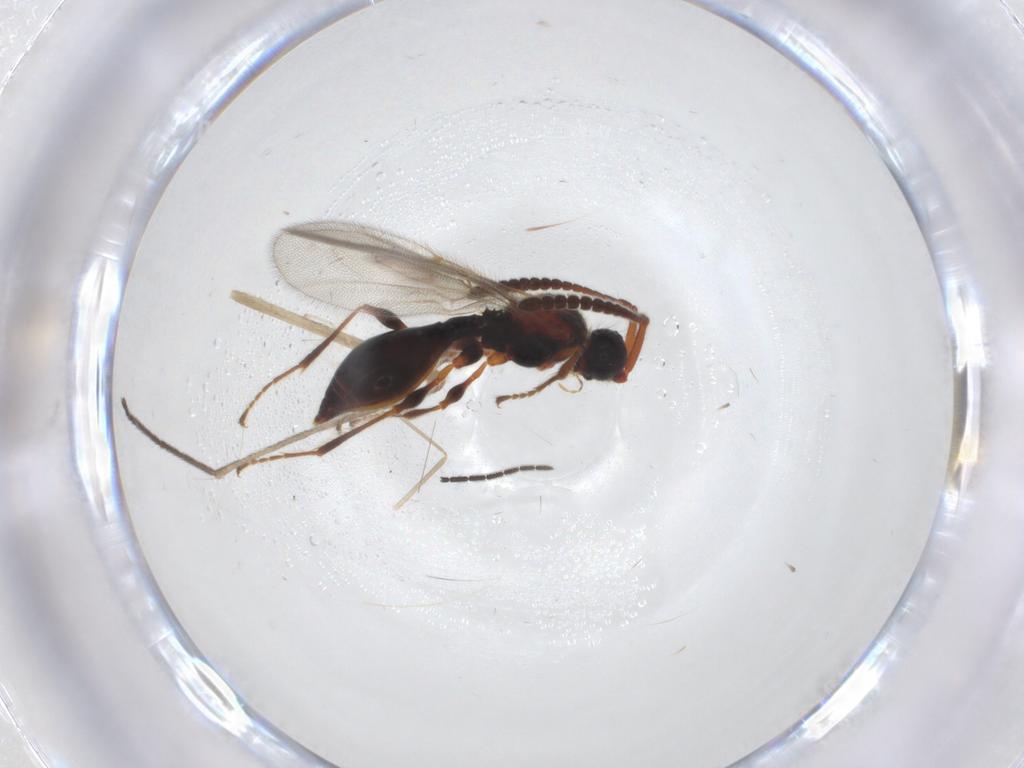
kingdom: Animalia
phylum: Arthropoda
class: Insecta
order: Hymenoptera
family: Diapriidae
